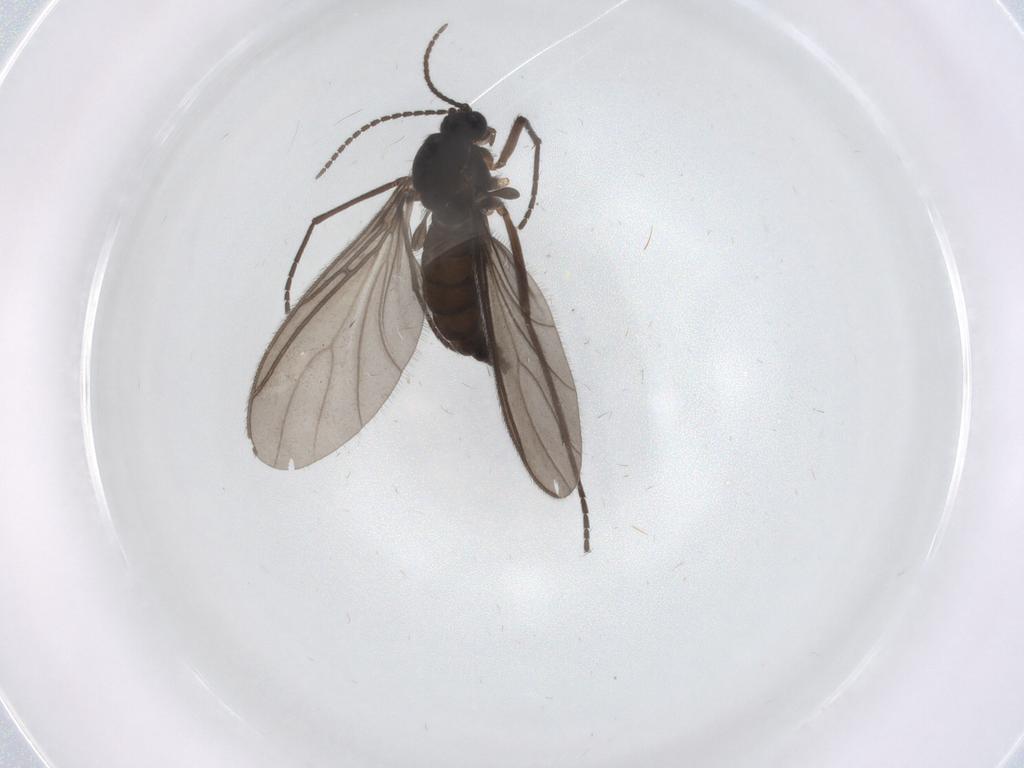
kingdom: Animalia
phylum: Arthropoda
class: Insecta
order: Diptera
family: Sciaridae
